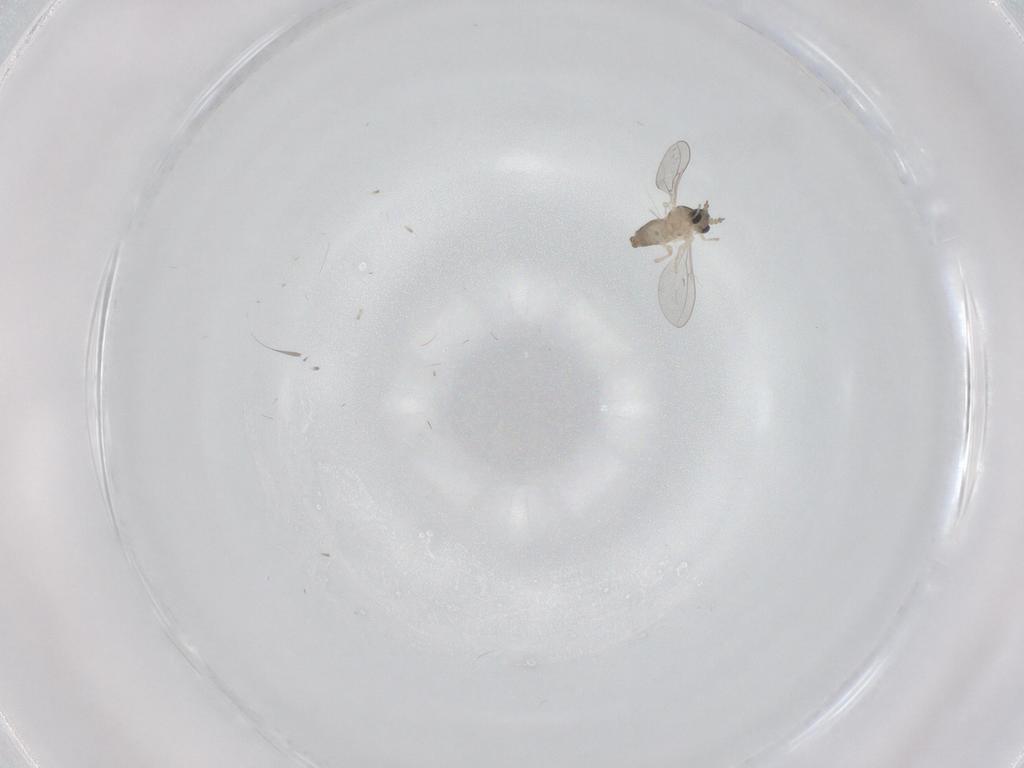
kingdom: Animalia
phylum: Arthropoda
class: Insecta
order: Diptera
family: Cecidomyiidae
